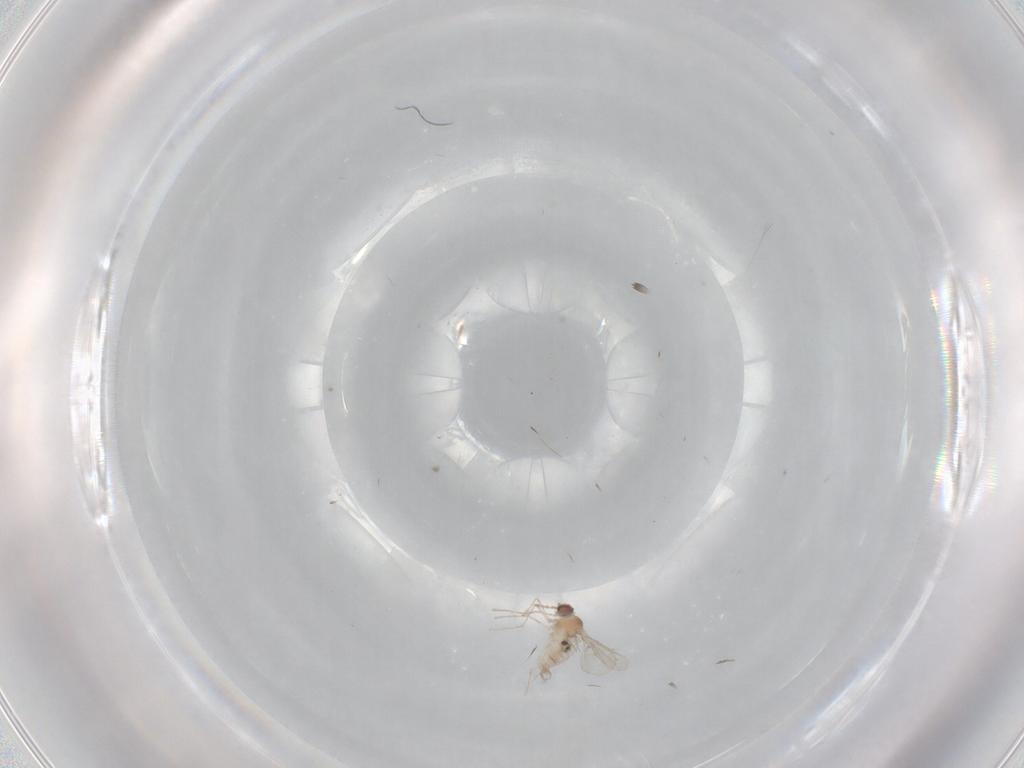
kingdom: Animalia
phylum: Arthropoda
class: Insecta
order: Diptera
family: Cecidomyiidae
